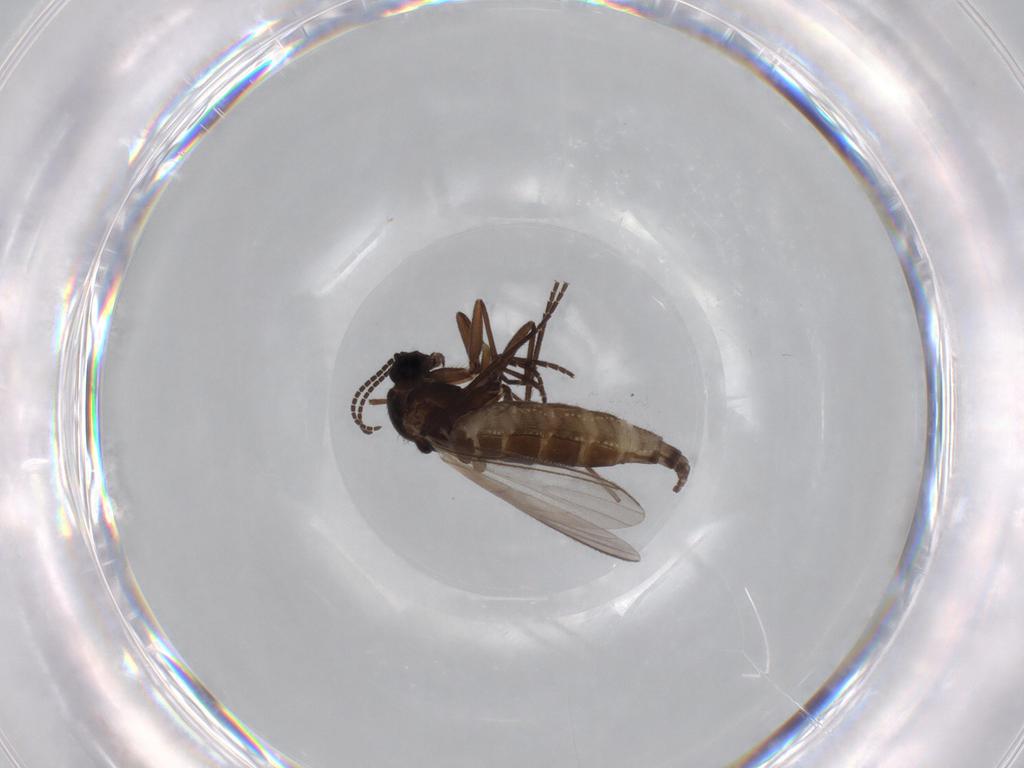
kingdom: Animalia
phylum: Arthropoda
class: Insecta
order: Diptera
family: Sciaridae
